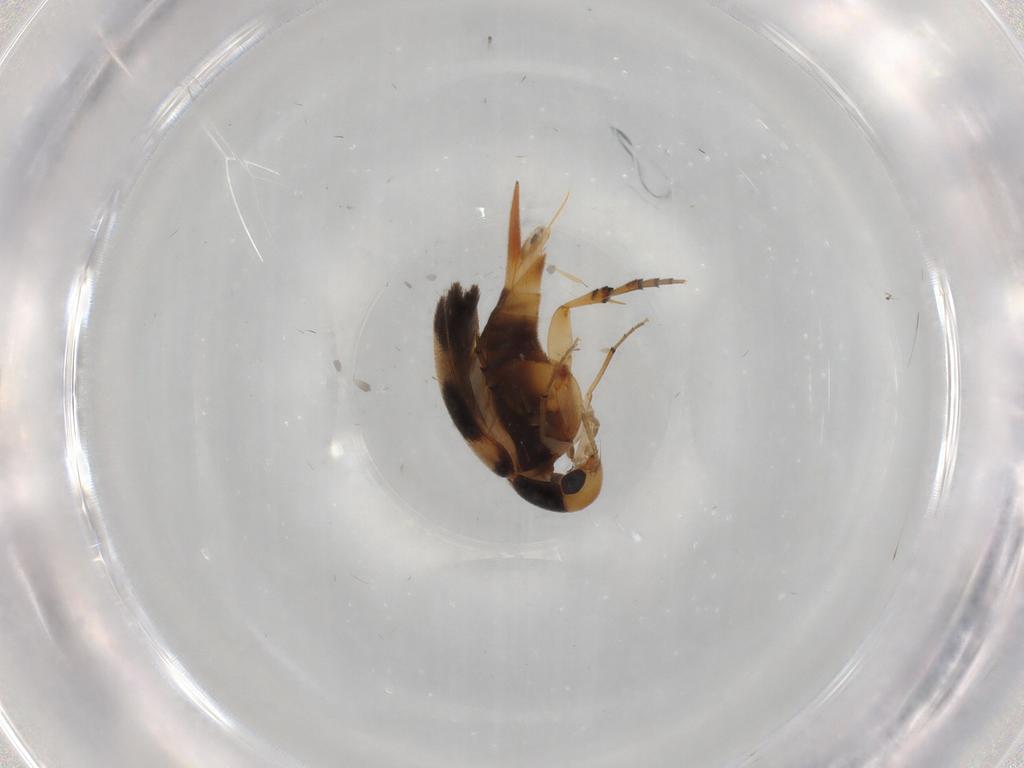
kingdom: Animalia
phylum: Arthropoda
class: Insecta
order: Coleoptera
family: Mordellidae
